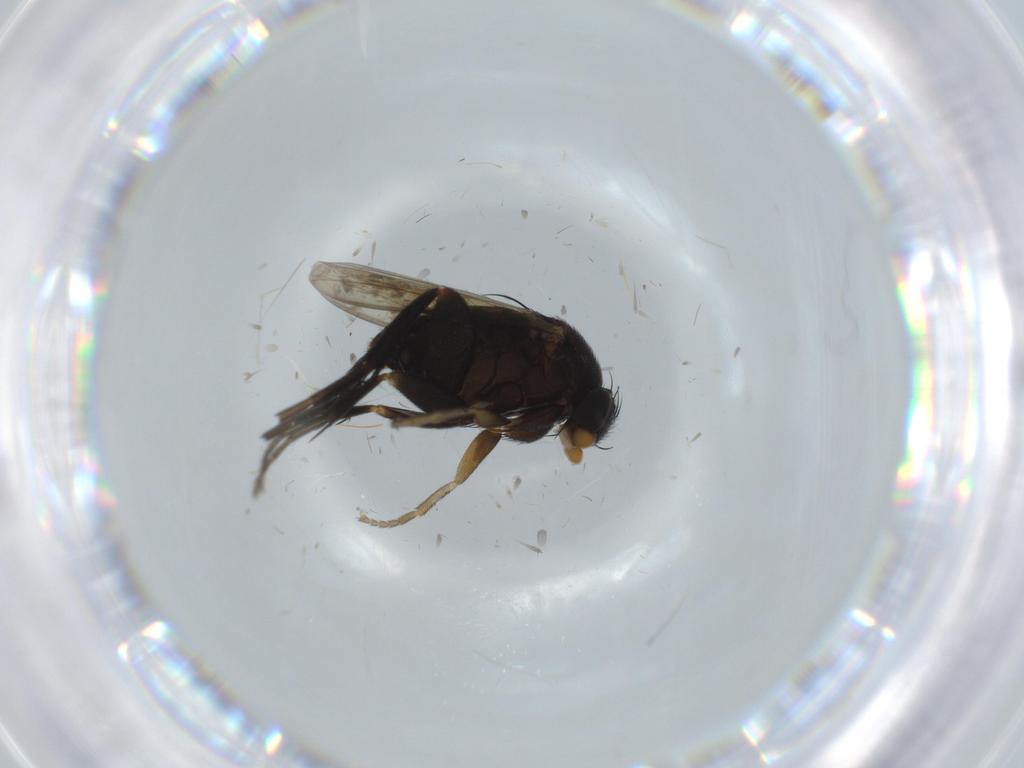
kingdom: Animalia
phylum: Arthropoda
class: Insecta
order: Diptera
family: Phoridae
